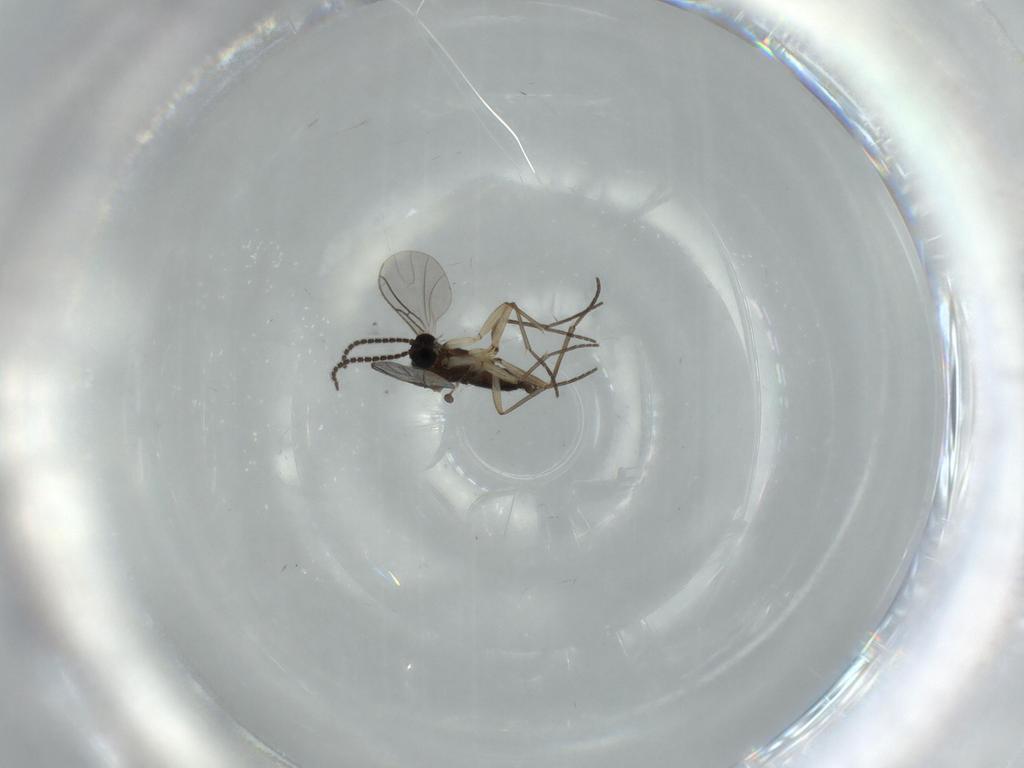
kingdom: Animalia
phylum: Arthropoda
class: Insecta
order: Diptera
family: Sciaridae
